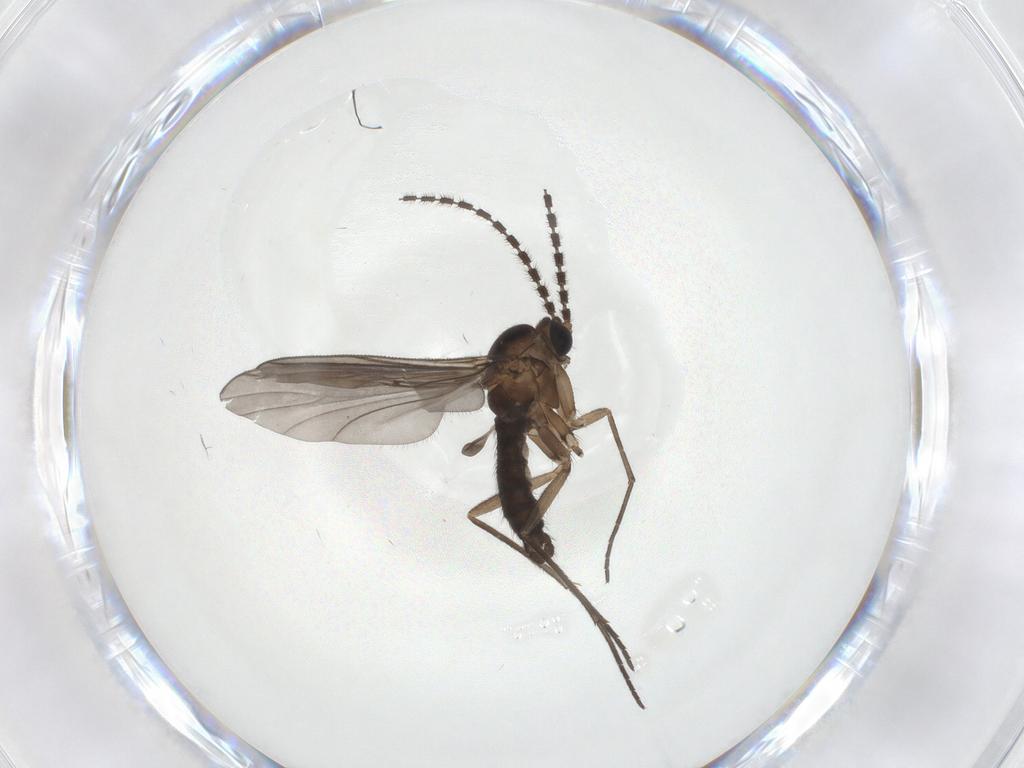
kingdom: Animalia
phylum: Arthropoda
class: Insecta
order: Diptera
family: Sciaridae
